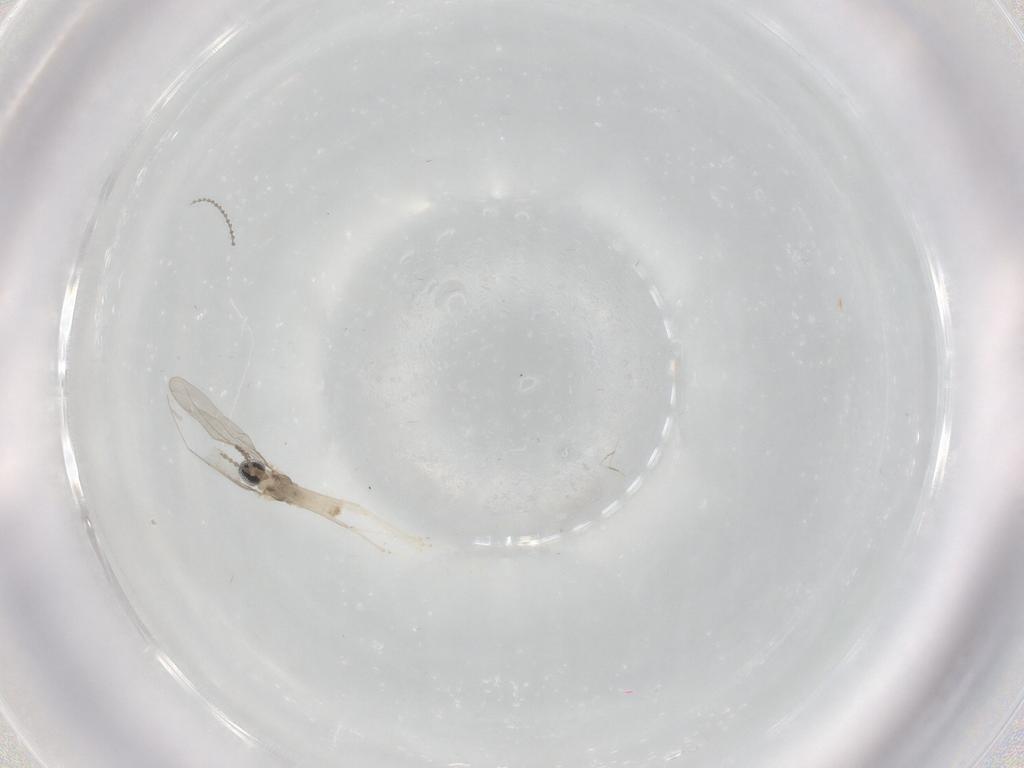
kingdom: Animalia
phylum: Arthropoda
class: Insecta
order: Diptera
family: Cecidomyiidae
